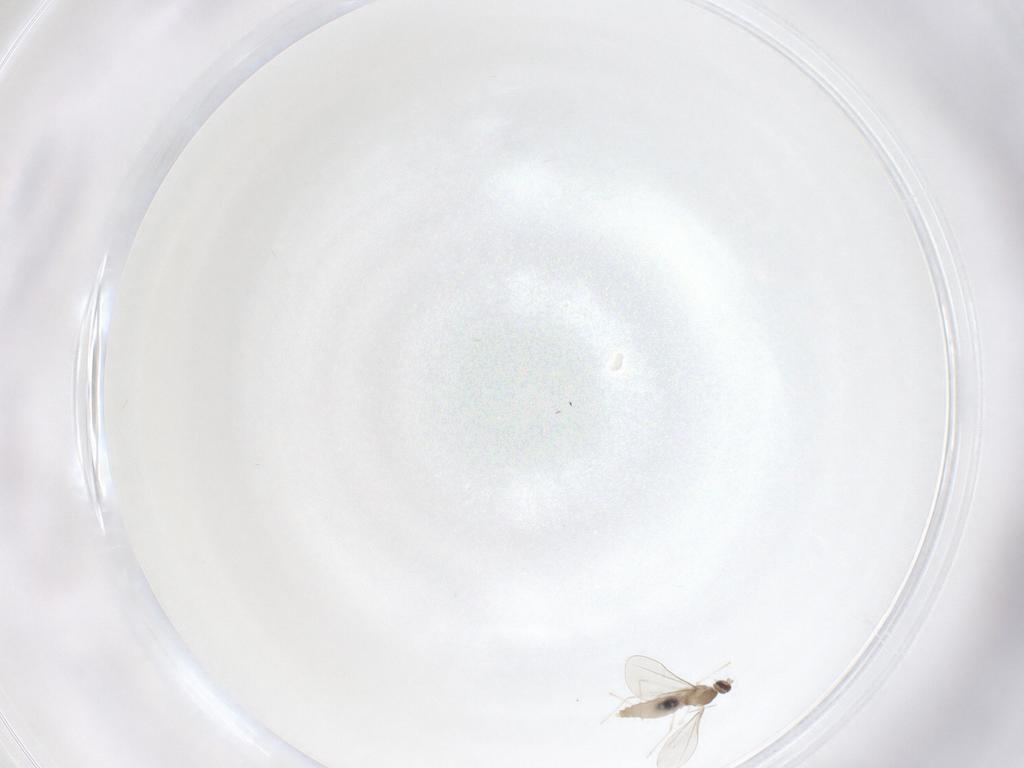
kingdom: Animalia
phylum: Arthropoda
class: Insecta
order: Diptera
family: Cecidomyiidae
